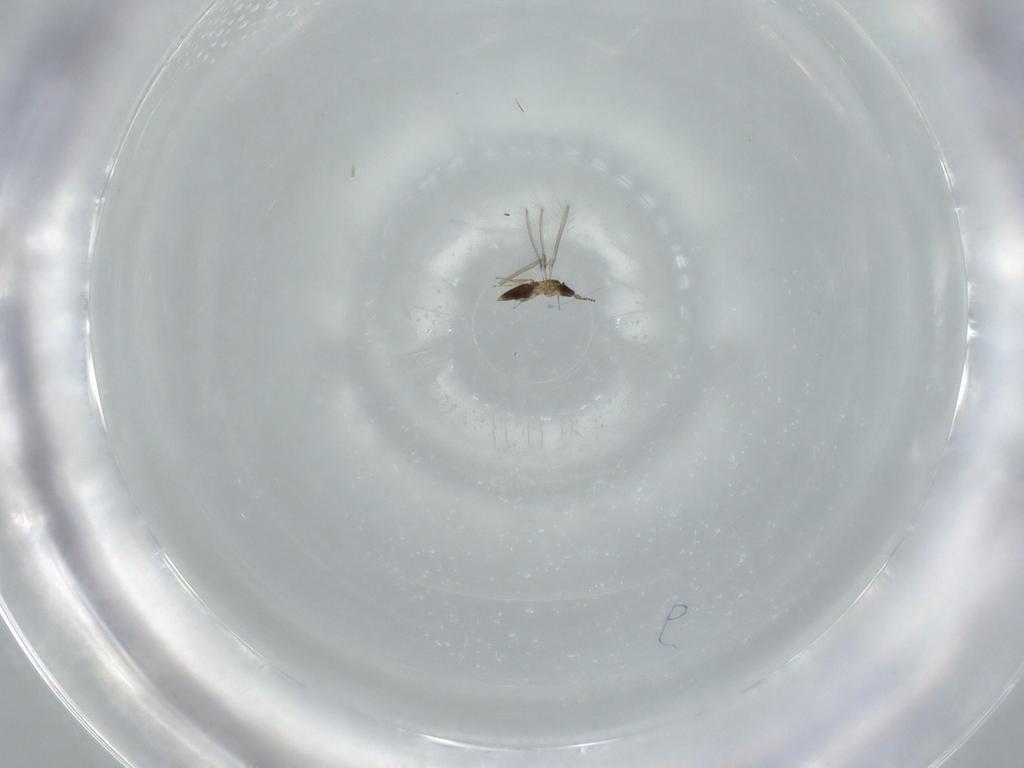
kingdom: Animalia
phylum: Arthropoda
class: Insecta
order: Hymenoptera
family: Mymaridae
